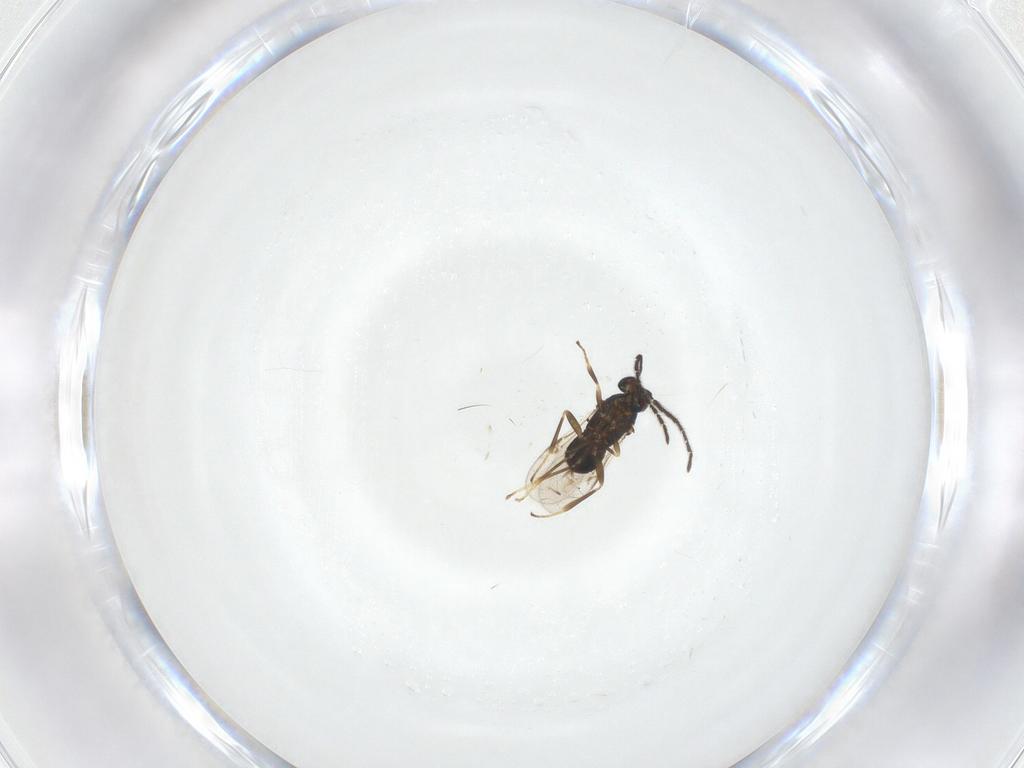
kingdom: Animalia
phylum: Arthropoda
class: Insecta
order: Hymenoptera
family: Encyrtidae
